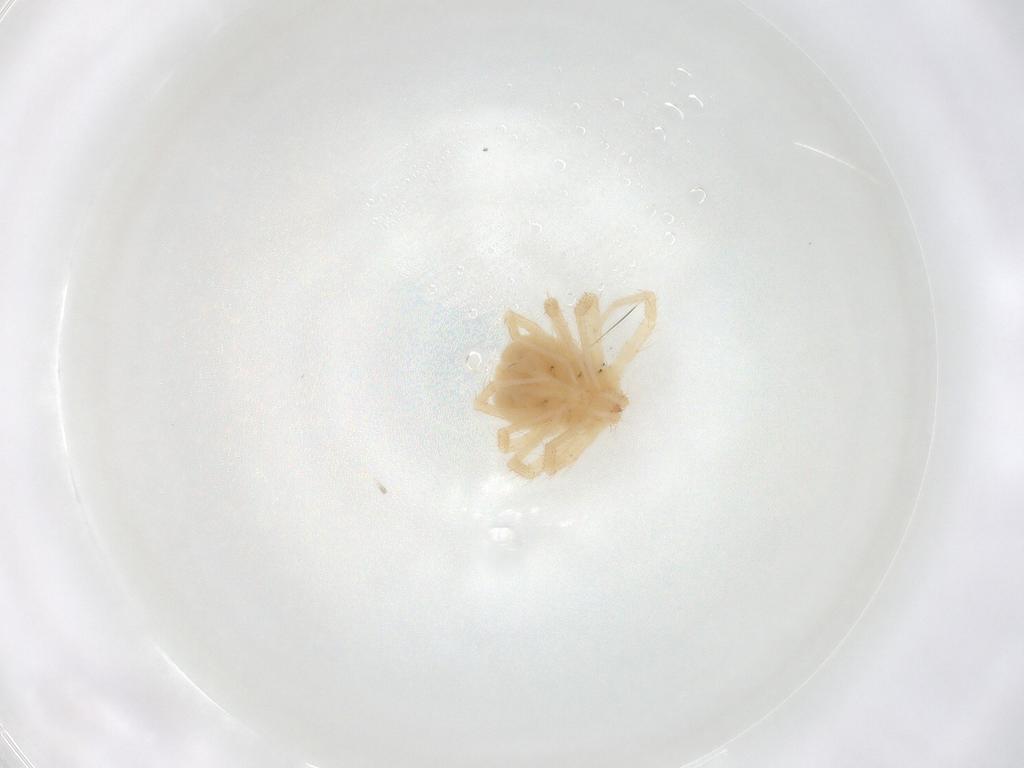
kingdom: Animalia
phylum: Arthropoda
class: Arachnida
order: Trombidiformes
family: Anystidae
